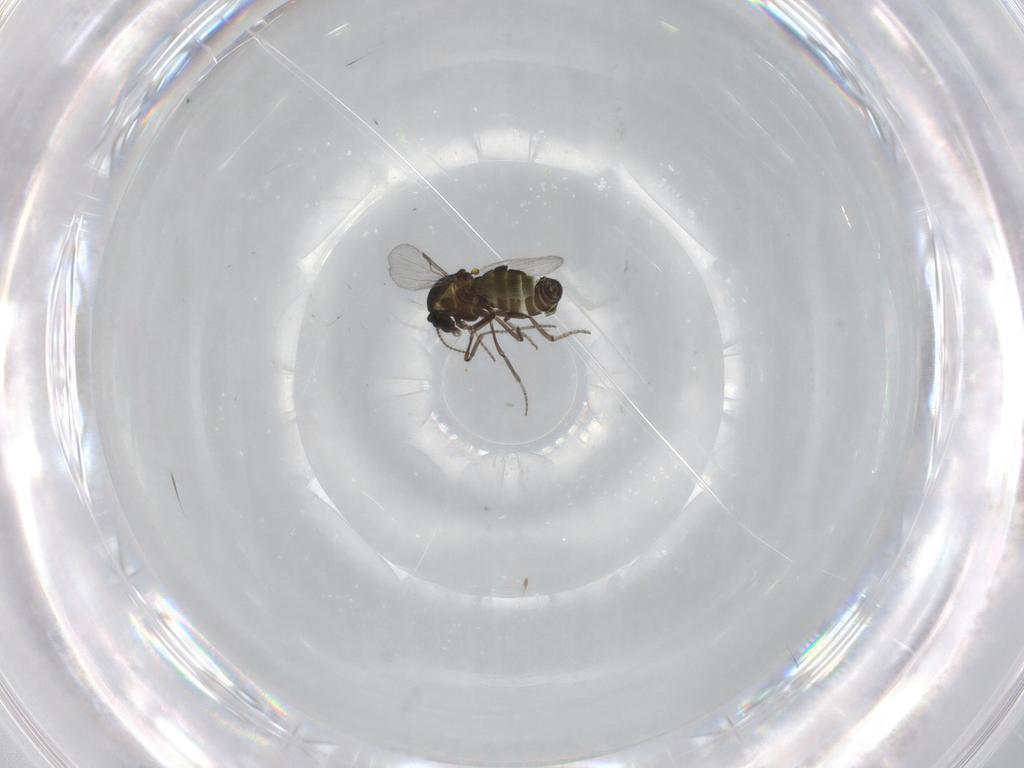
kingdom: Animalia
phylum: Arthropoda
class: Insecta
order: Diptera
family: Ceratopogonidae
